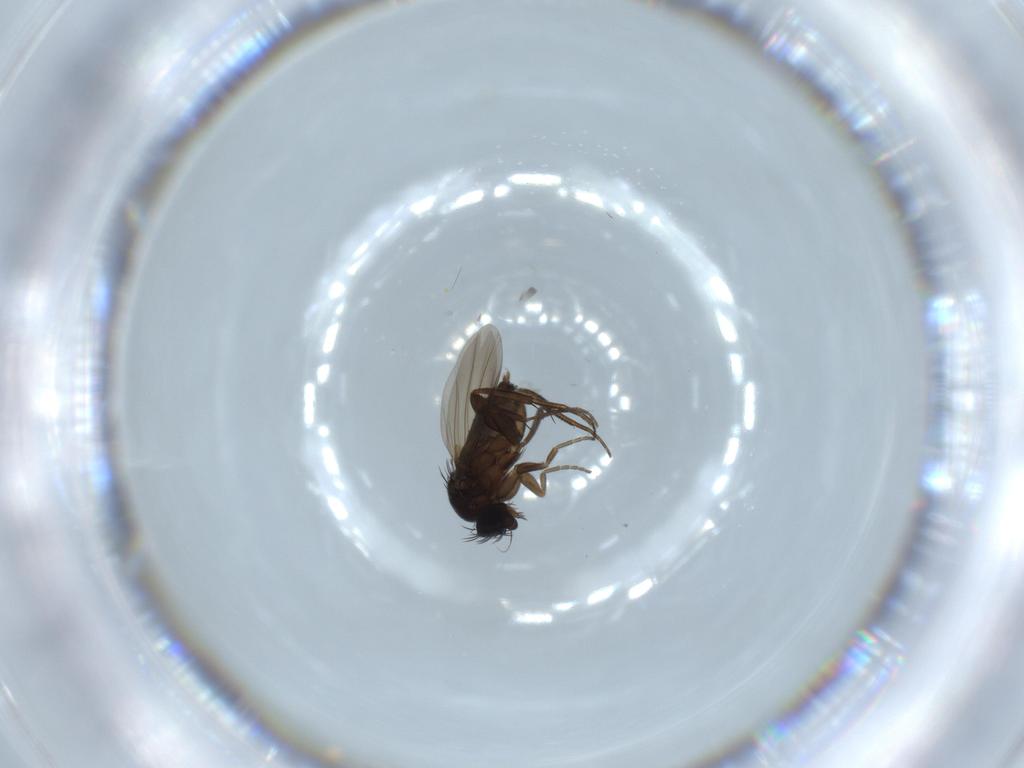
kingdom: Animalia
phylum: Arthropoda
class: Insecta
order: Diptera
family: Phoridae
